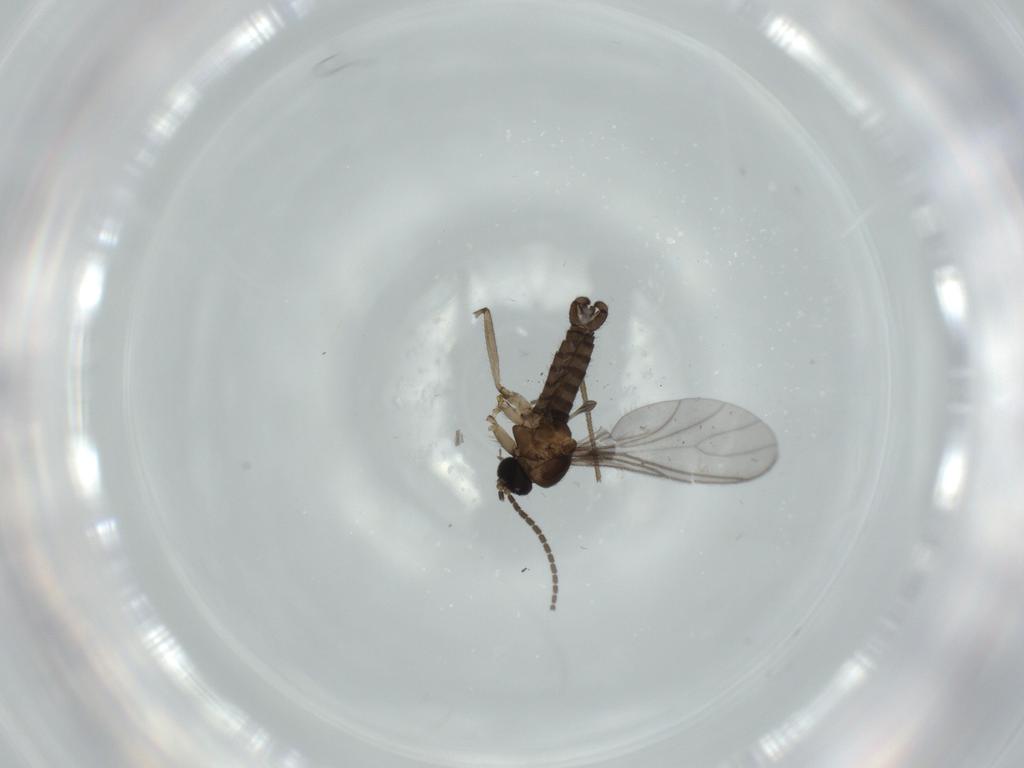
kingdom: Animalia
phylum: Arthropoda
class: Insecta
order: Diptera
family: Sciaridae
